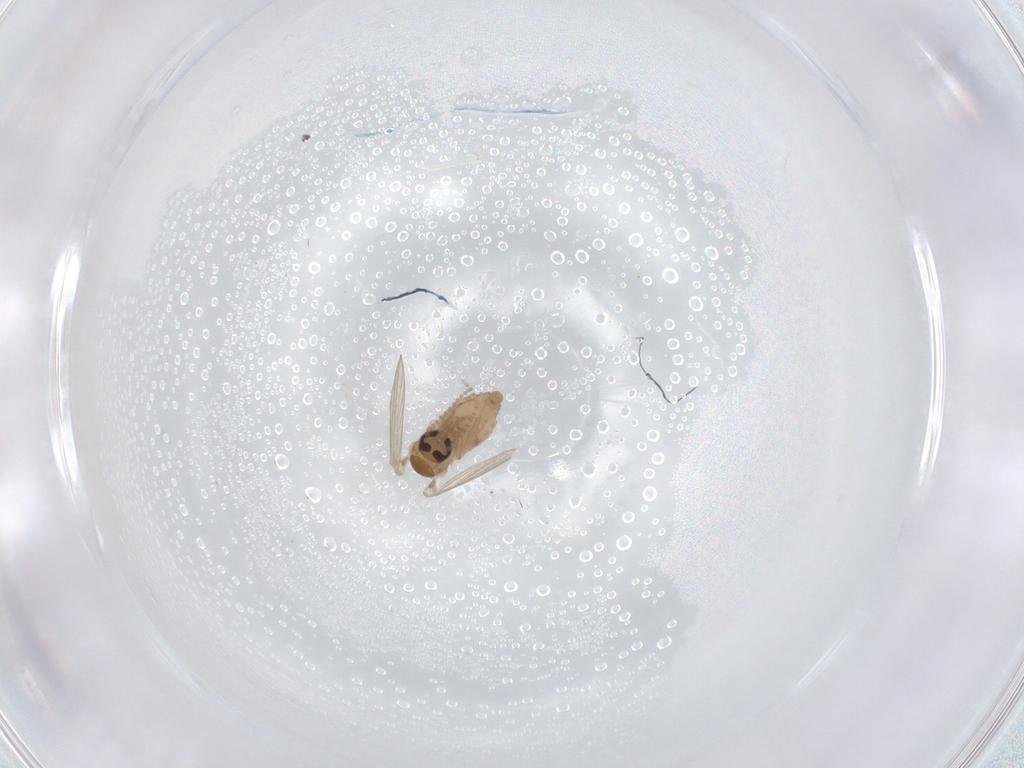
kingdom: Animalia
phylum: Arthropoda
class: Insecta
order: Diptera
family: Psychodidae
